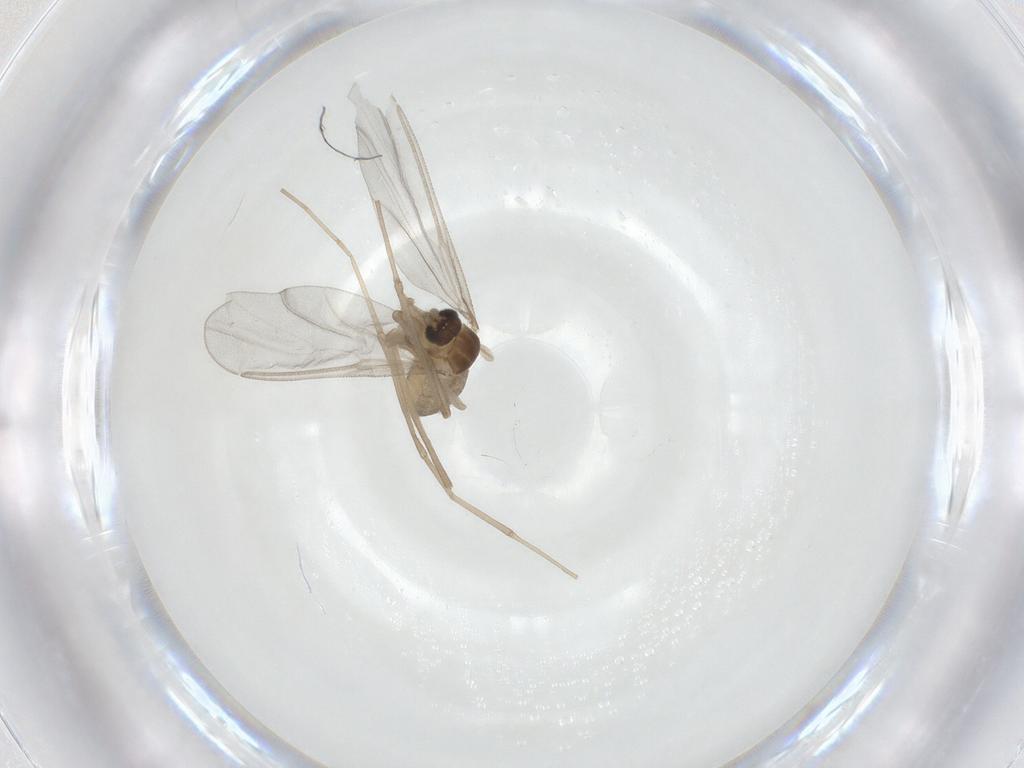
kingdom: Animalia
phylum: Arthropoda
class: Insecta
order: Diptera
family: Cecidomyiidae
